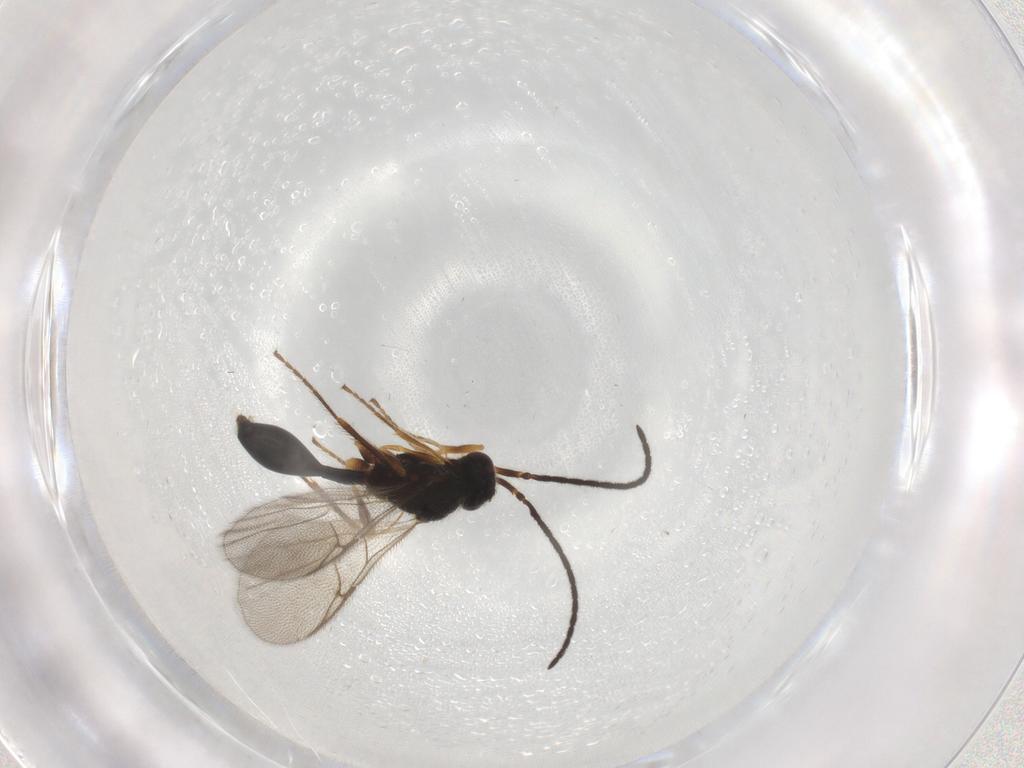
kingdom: Animalia
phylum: Arthropoda
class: Insecta
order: Hymenoptera
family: Diapriidae
